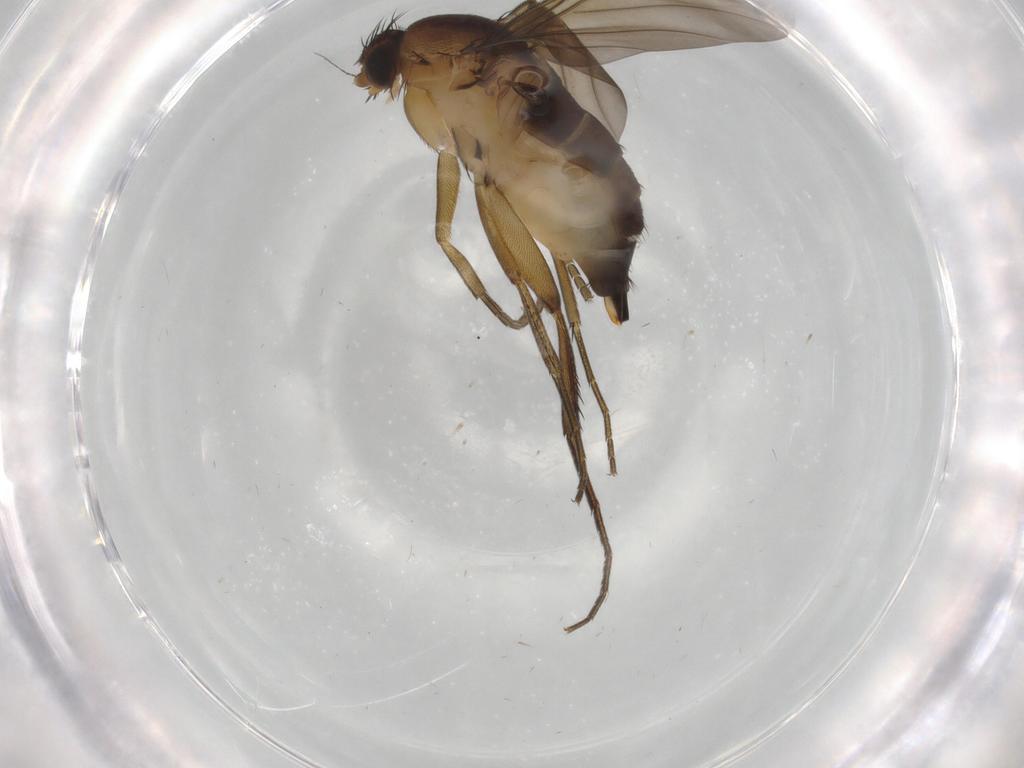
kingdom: Animalia
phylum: Arthropoda
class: Insecta
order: Diptera
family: Phoridae
